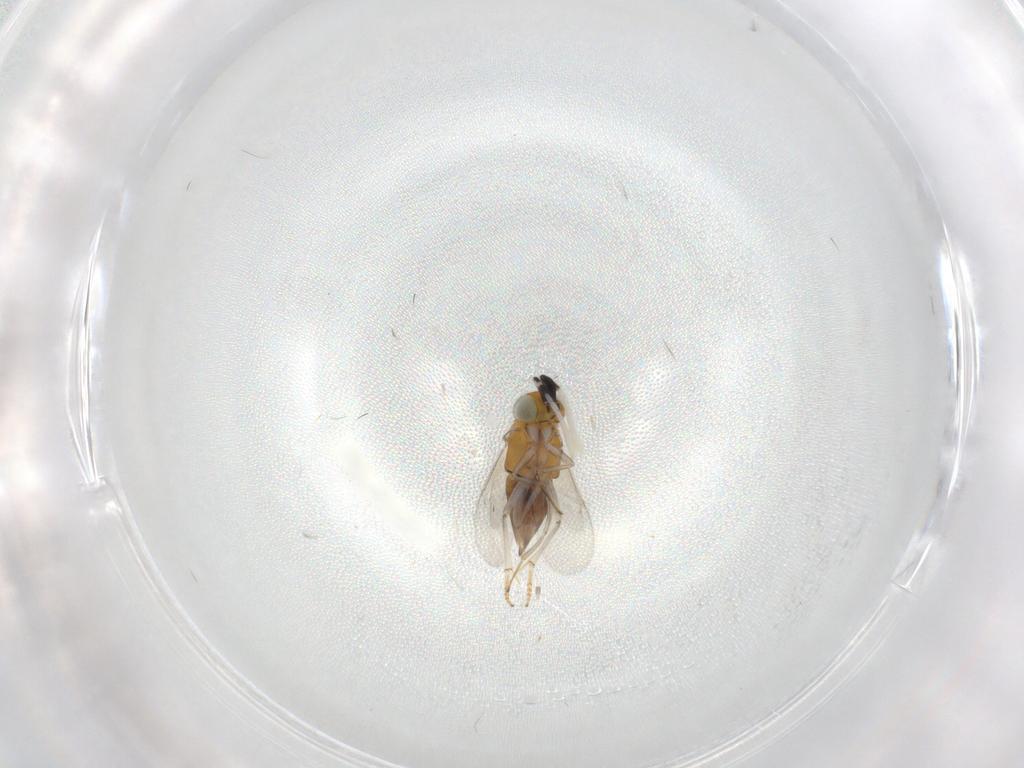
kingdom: Animalia
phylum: Arthropoda
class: Insecta
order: Hymenoptera
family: Encyrtidae
